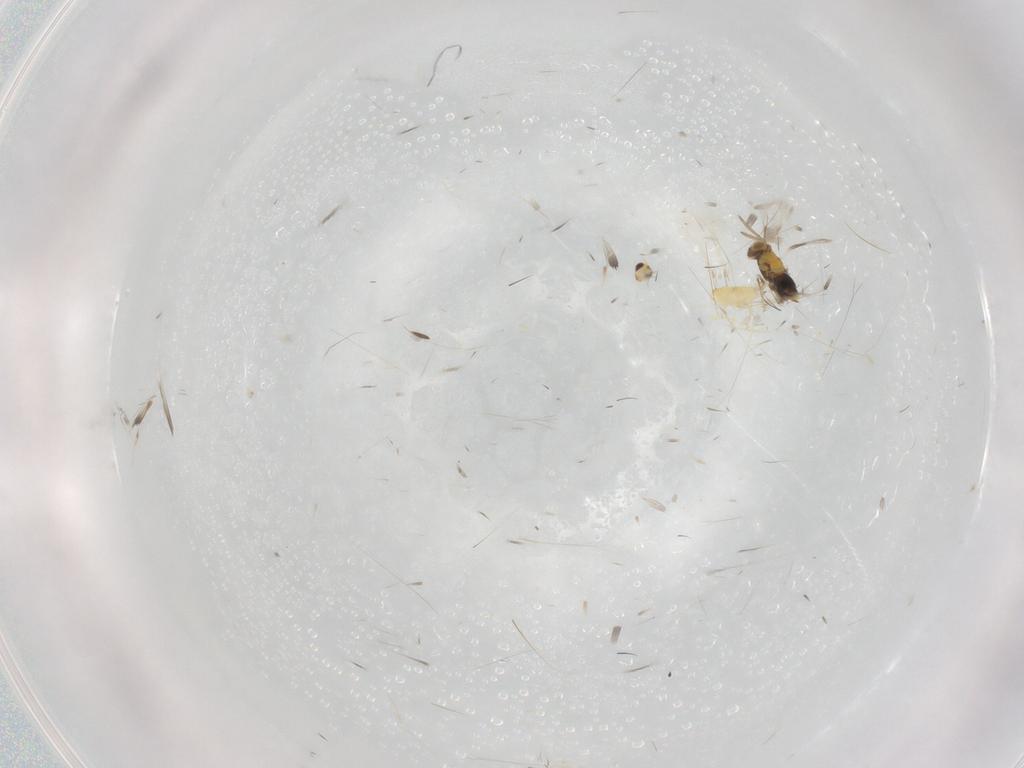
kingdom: Animalia
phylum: Arthropoda
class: Insecta
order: Hymenoptera
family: Mymaridae
